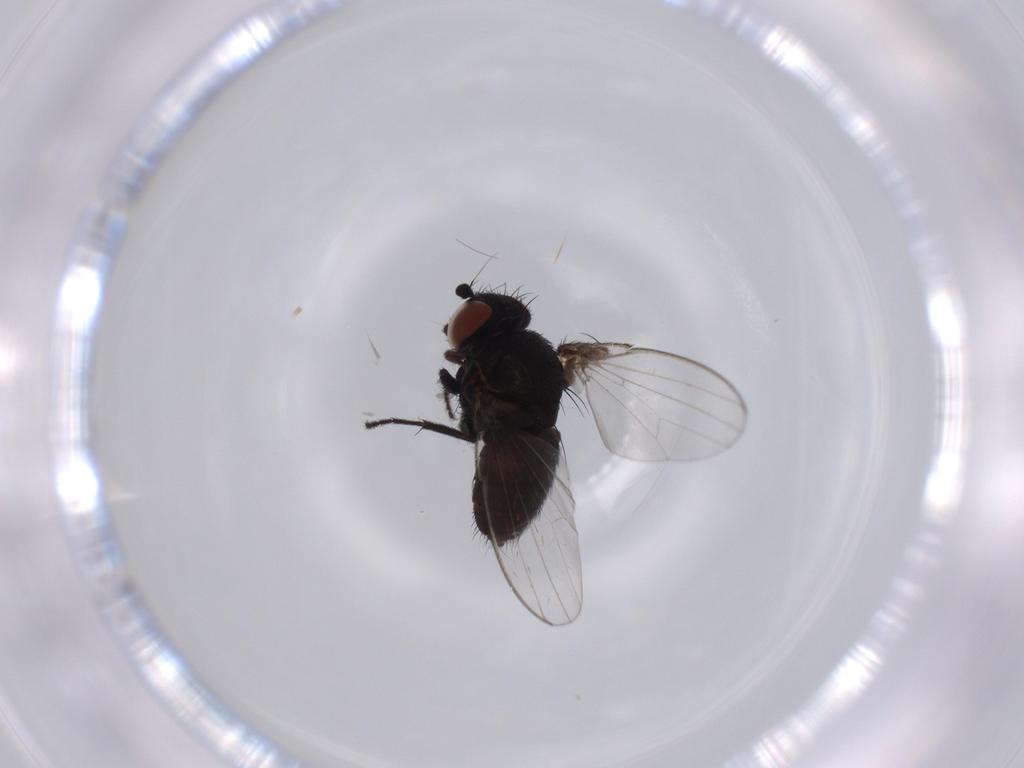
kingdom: Animalia
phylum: Arthropoda
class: Insecta
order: Diptera
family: Milichiidae
